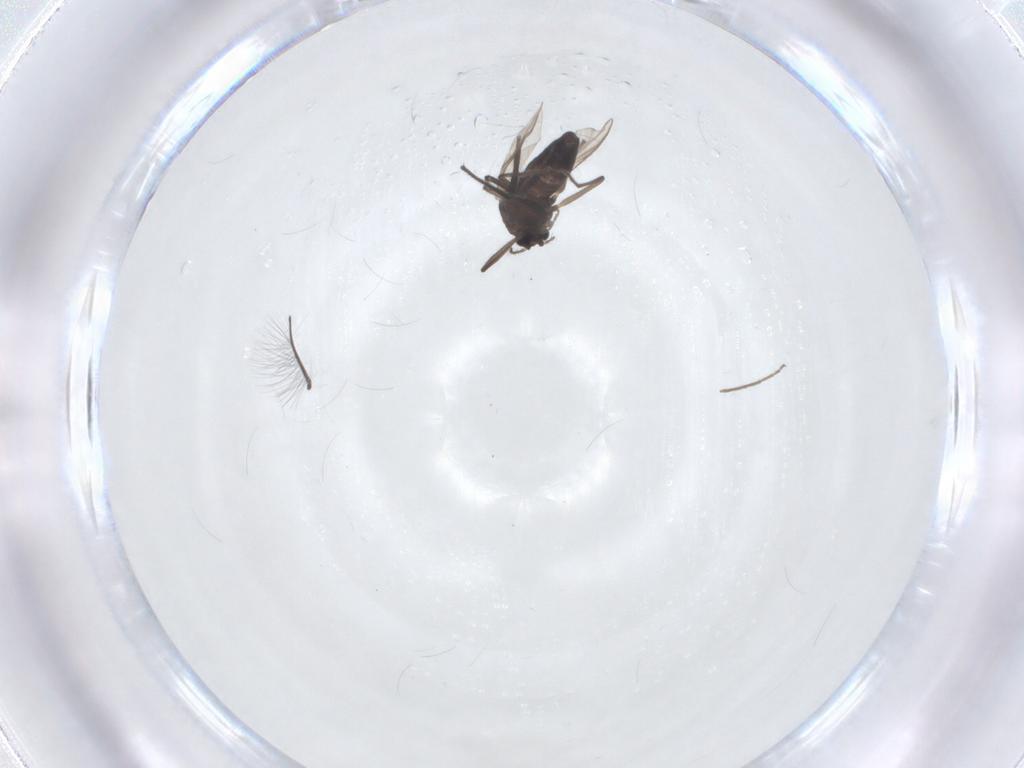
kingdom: Animalia
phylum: Arthropoda
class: Insecta
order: Diptera
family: Chironomidae
